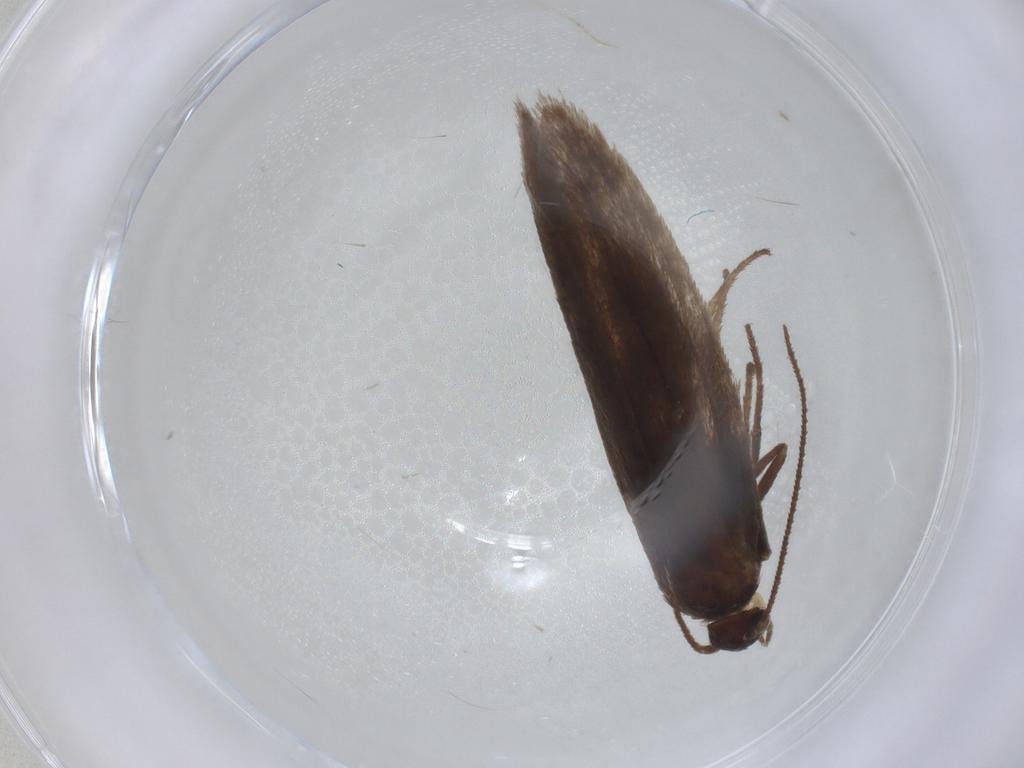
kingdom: Animalia
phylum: Arthropoda
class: Insecta
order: Lepidoptera
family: Limacodidae
